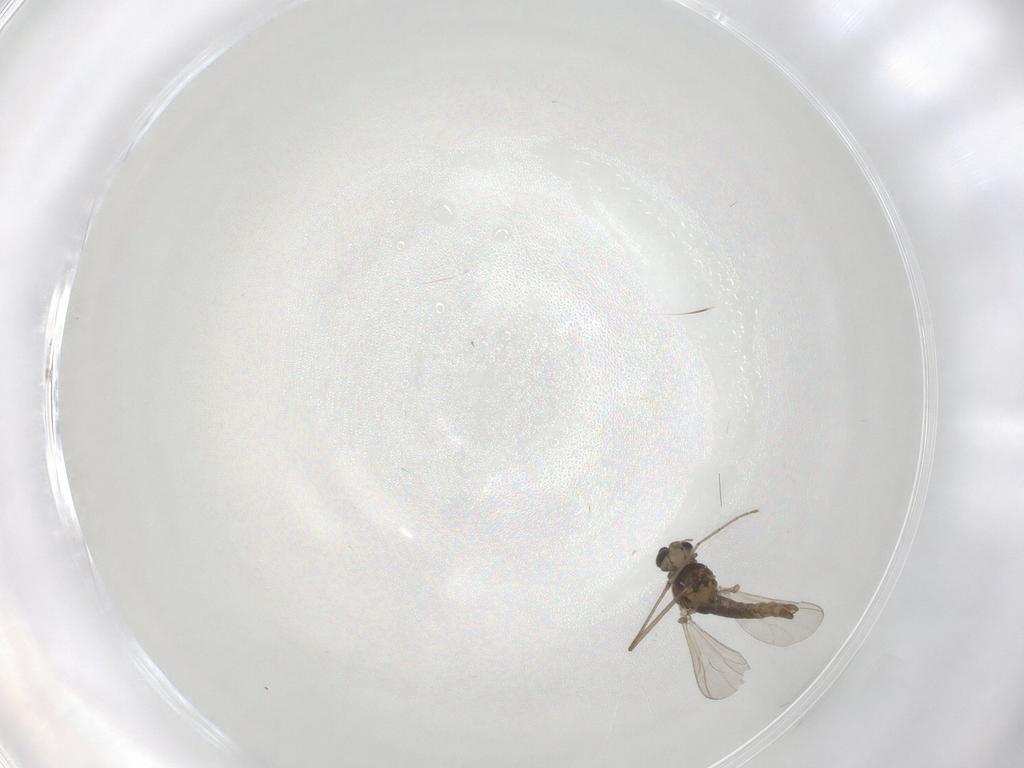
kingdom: Animalia
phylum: Arthropoda
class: Insecta
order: Diptera
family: Chironomidae
